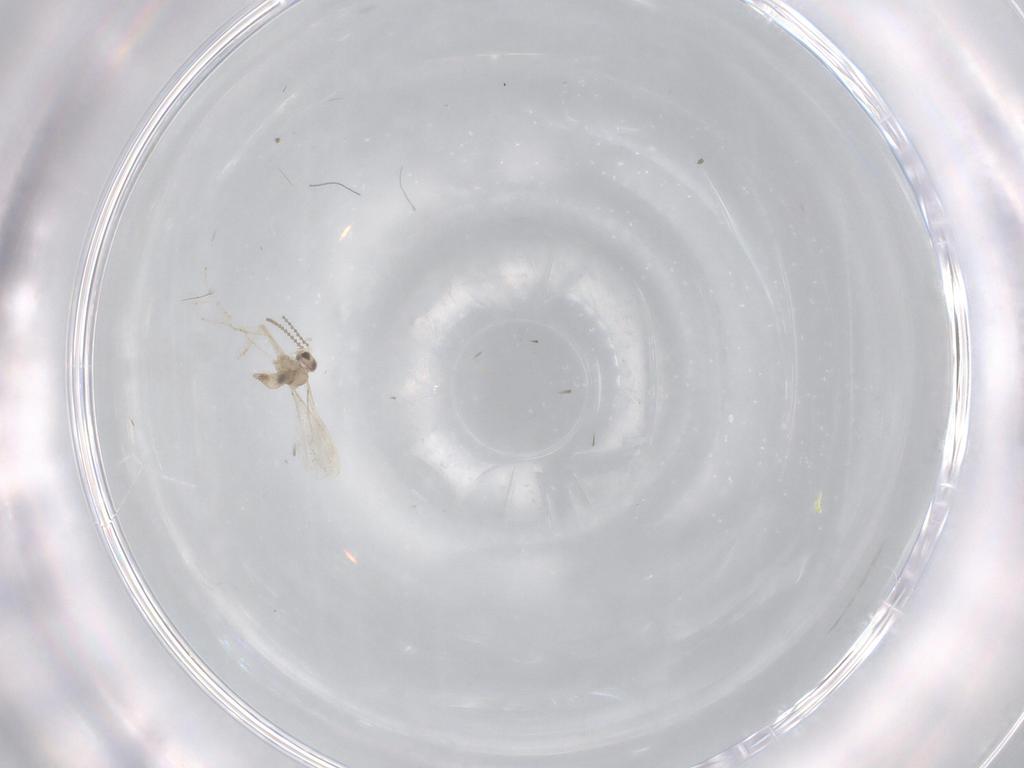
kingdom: Animalia
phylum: Arthropoda
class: Insecta
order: Diptera
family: Cecidomyiidae
